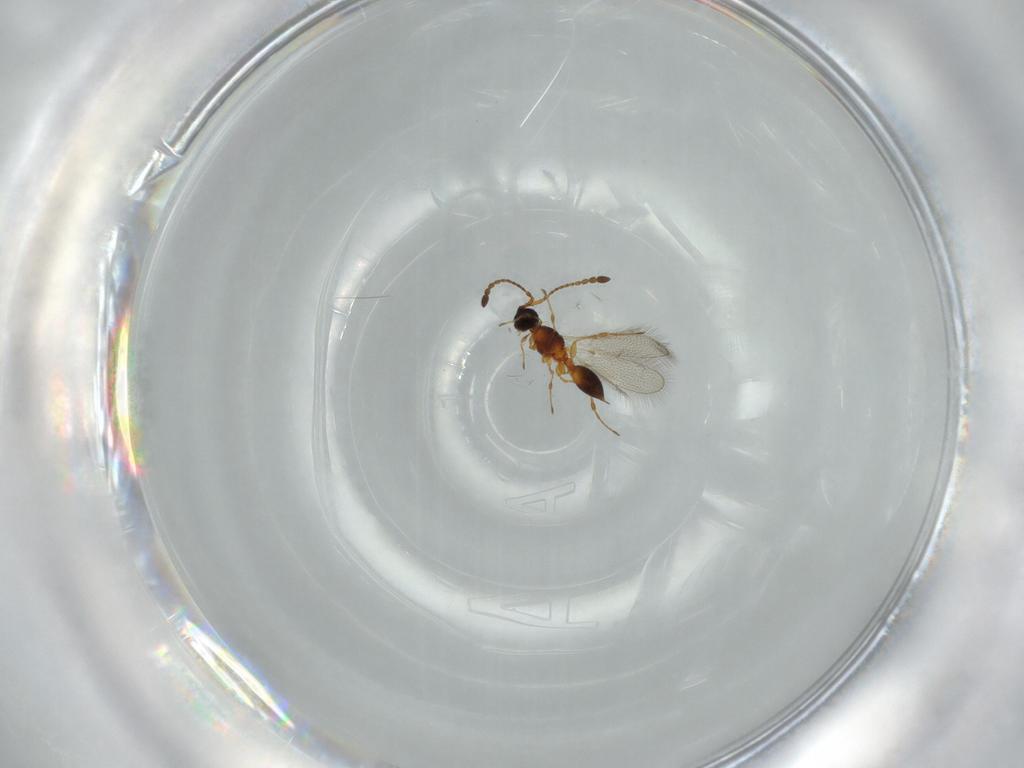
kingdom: Animalia
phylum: Arthropoda
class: Insecta
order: Hymenoptera
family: Diapriidae
